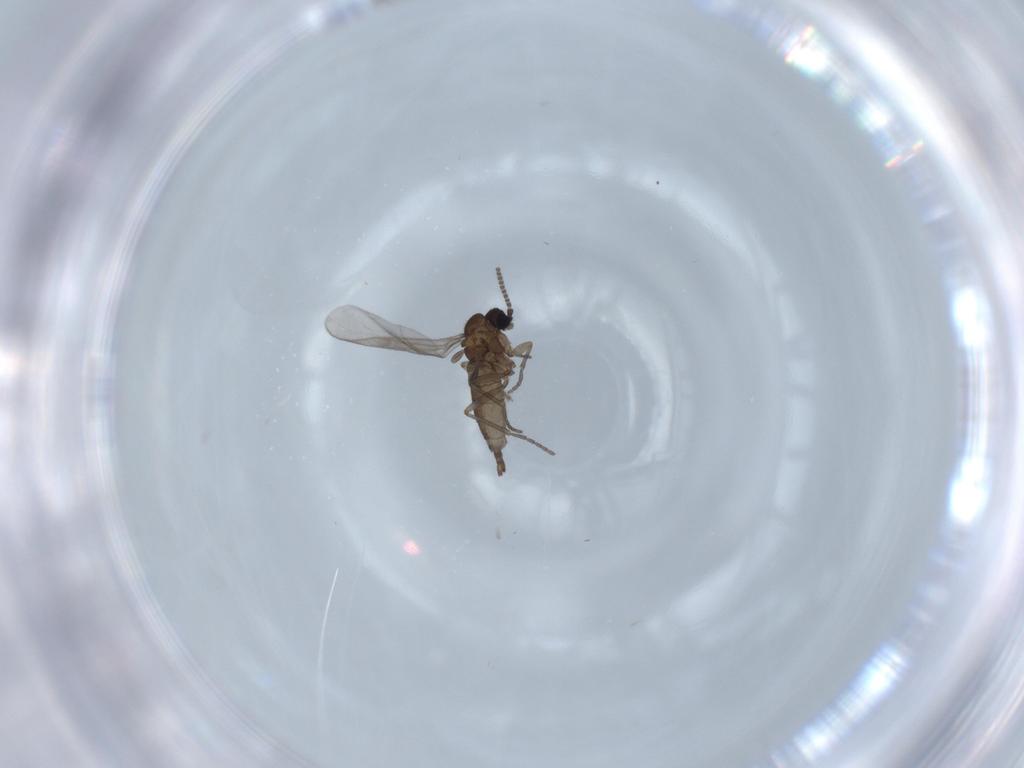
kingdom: Animalia
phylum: Arthropoda
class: Insecta
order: Diptera
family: Sciaridae
